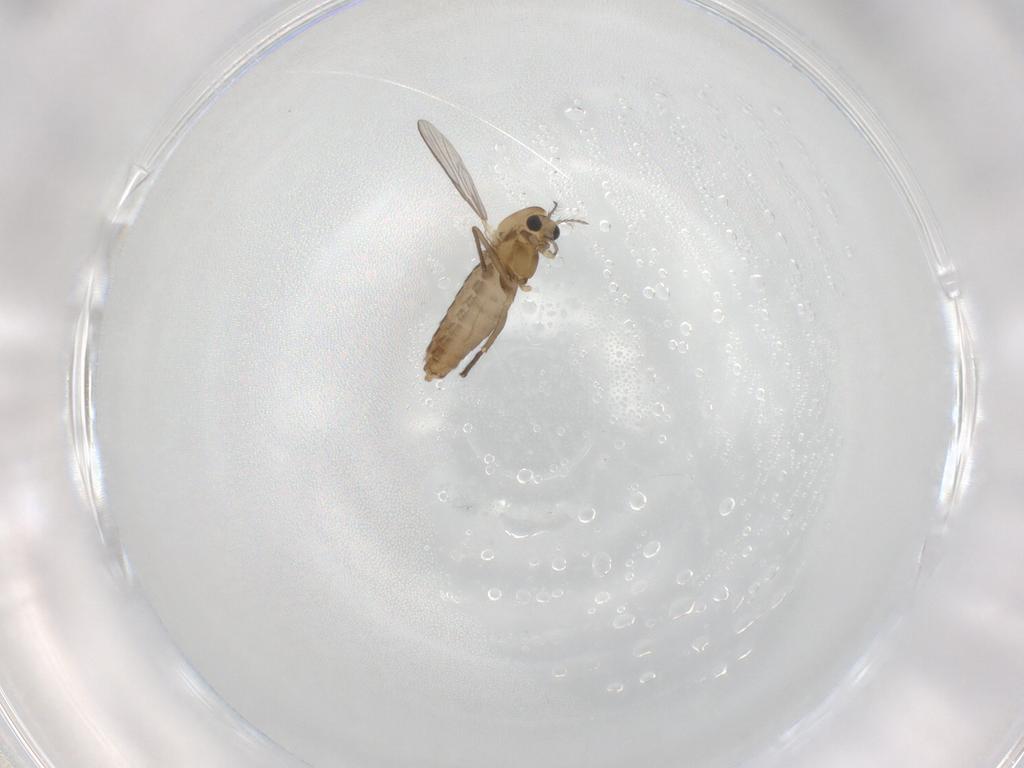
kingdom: Animalia
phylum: Arthropoda
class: Insecta
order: Diptera
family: Chironomidae
